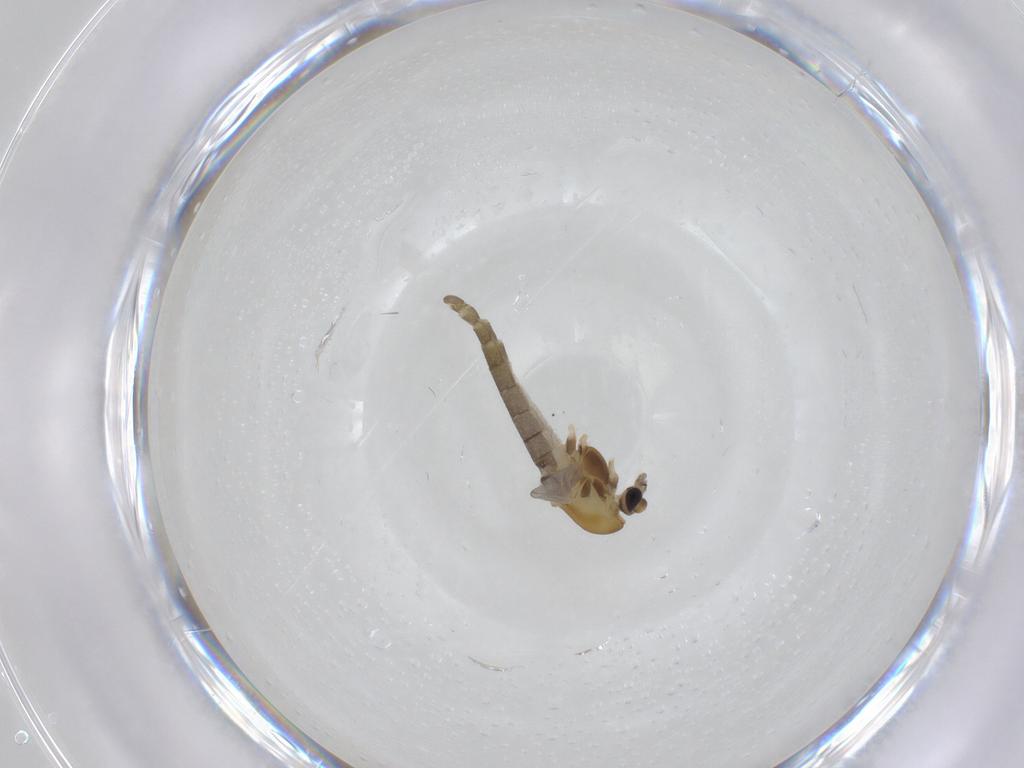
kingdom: Animalia
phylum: Arthropoda
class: Insecta
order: Diptera
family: Chironomidae
